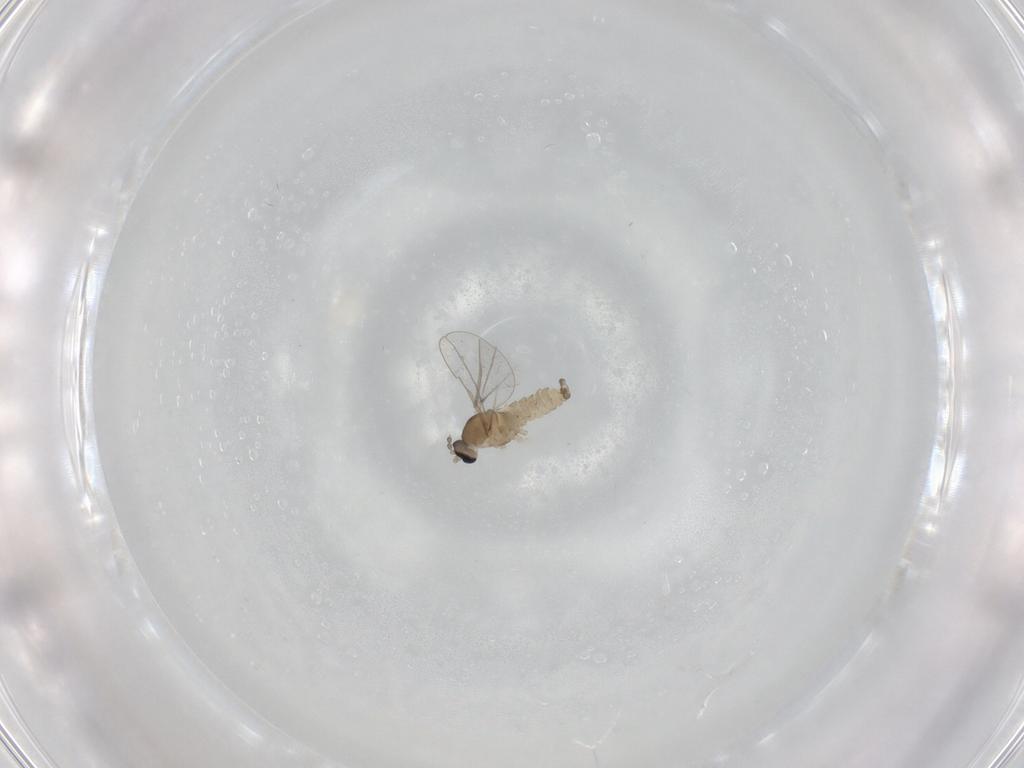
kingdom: Animalia
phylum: Arthropoda
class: Insecta
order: Diptera
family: Cecidomyiidae
